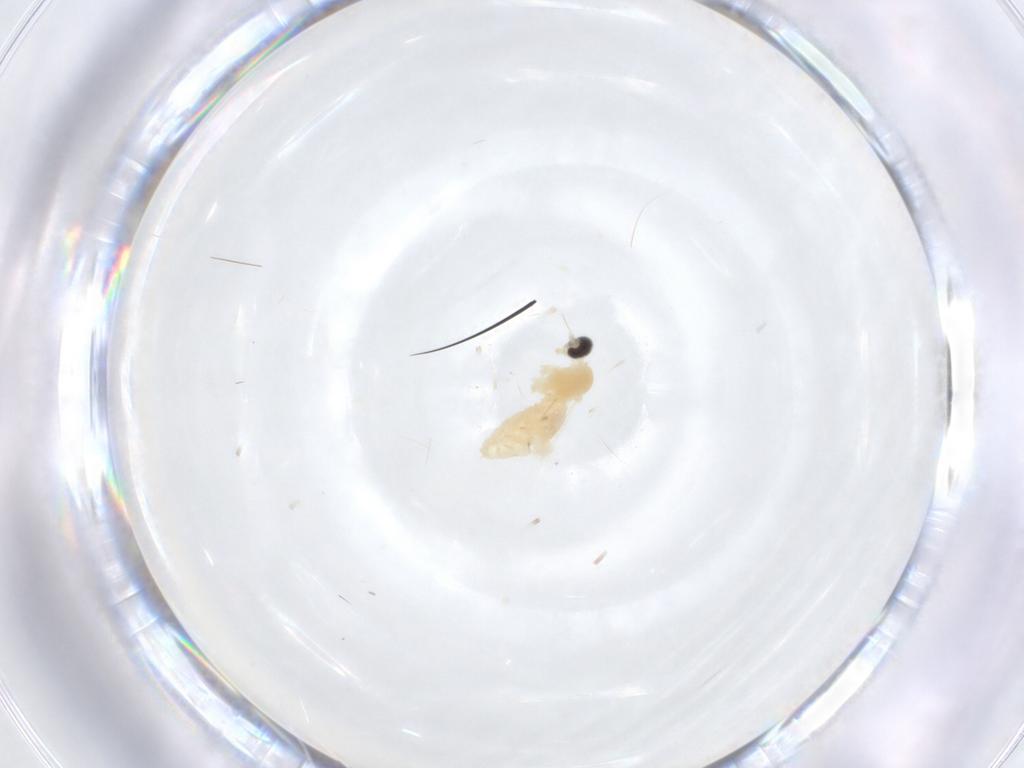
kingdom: Animalia
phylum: Arthropoda
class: Insecta
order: Diptera
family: Cecidomyiidae
